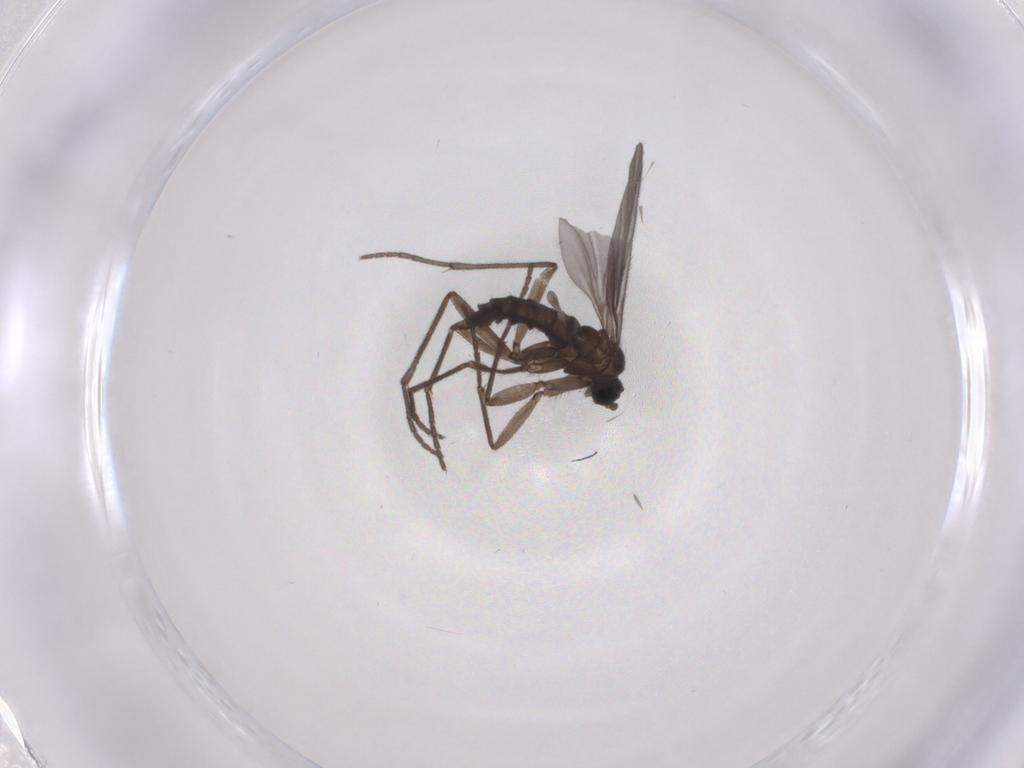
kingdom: Animalia
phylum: Arthropoda
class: Insecta
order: Diptera
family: Sciaridae
